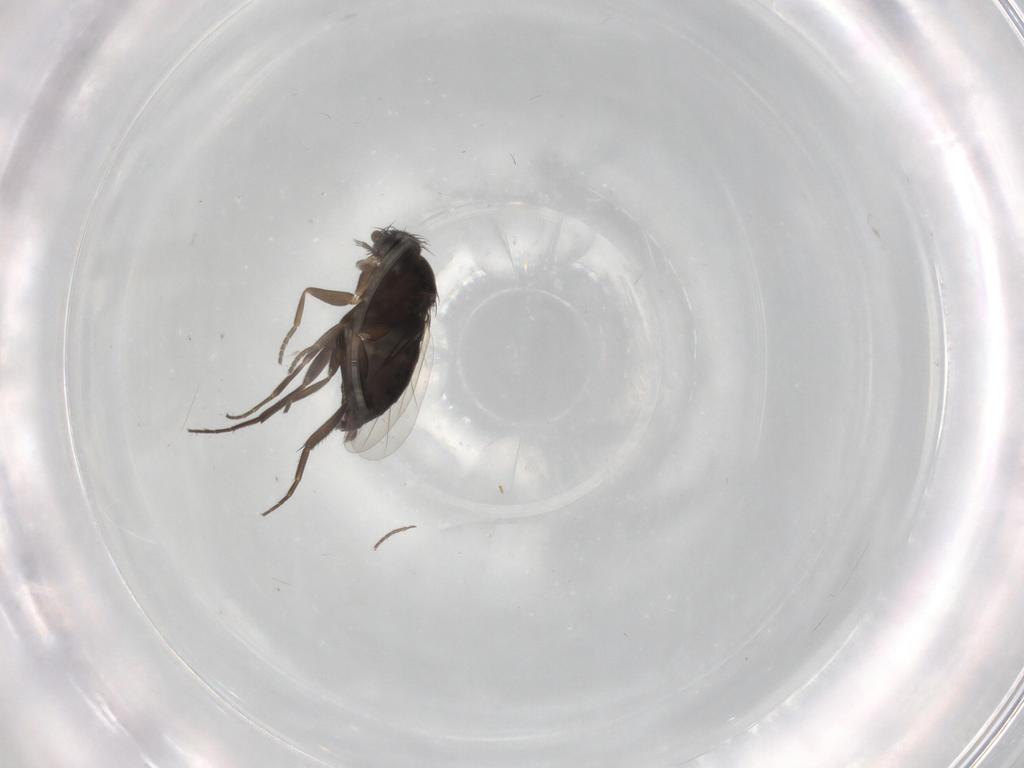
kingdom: Animalia
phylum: Arthropoda
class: Insecta
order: Diptera
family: Phoridae
